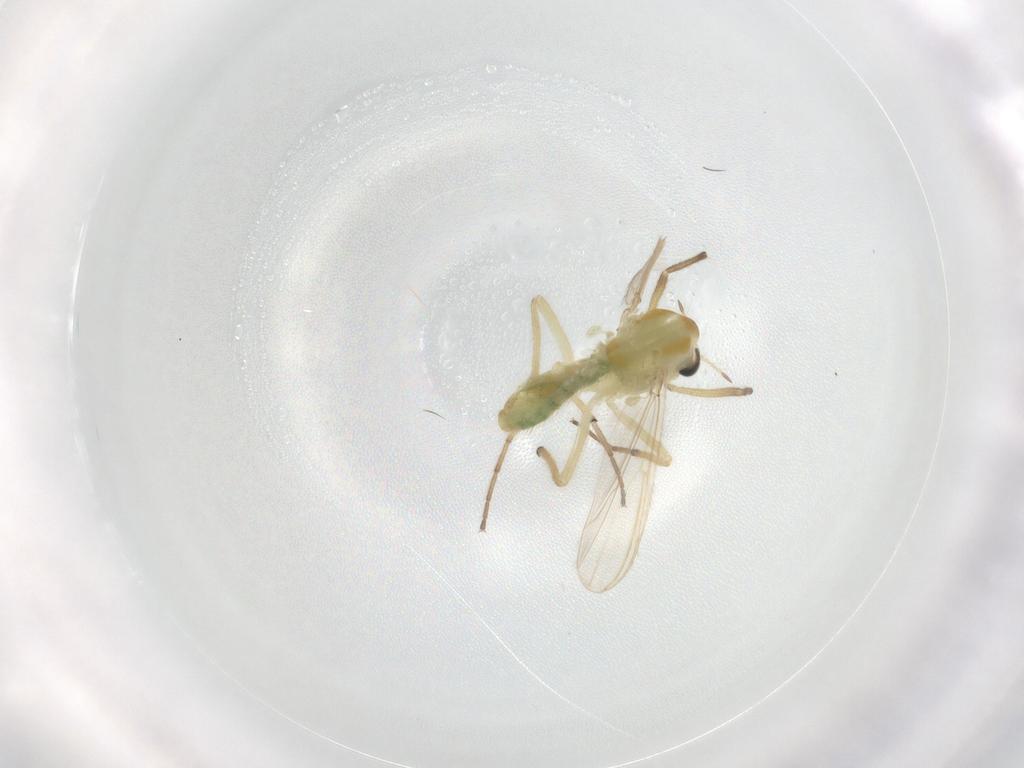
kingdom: Animalia
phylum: Arthropoda
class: Insecta
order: Diptera
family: Chironomidae
